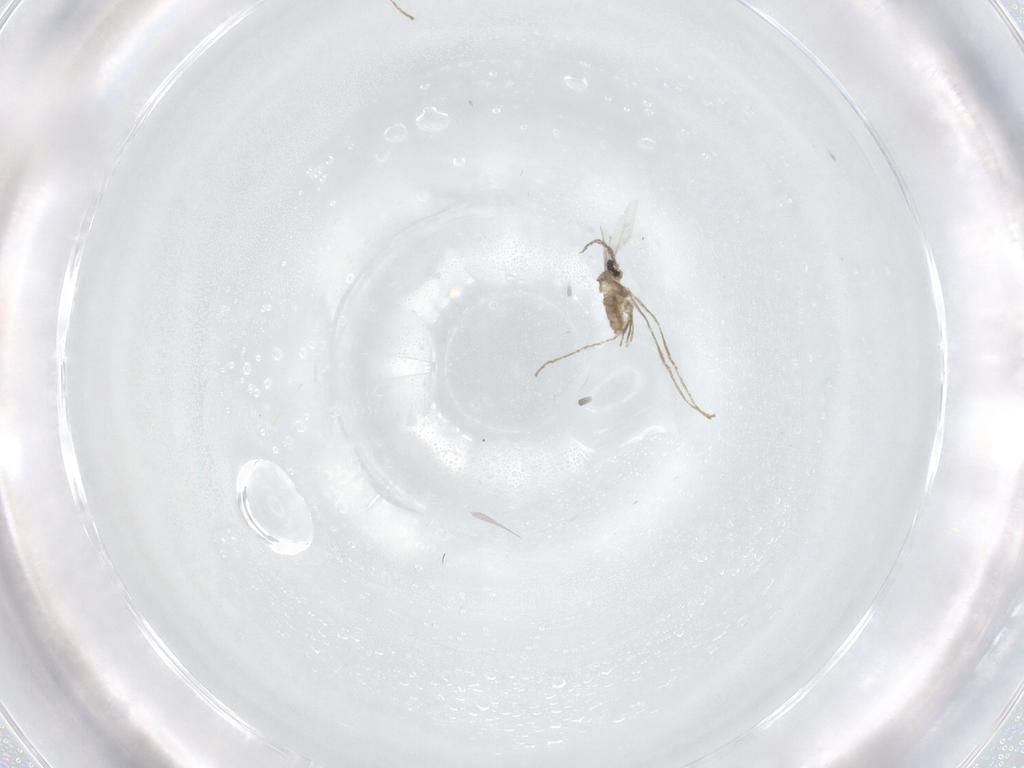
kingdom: Animalia
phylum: Arthropoda
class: Insecta
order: Diptera
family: Cecidomyiidae
